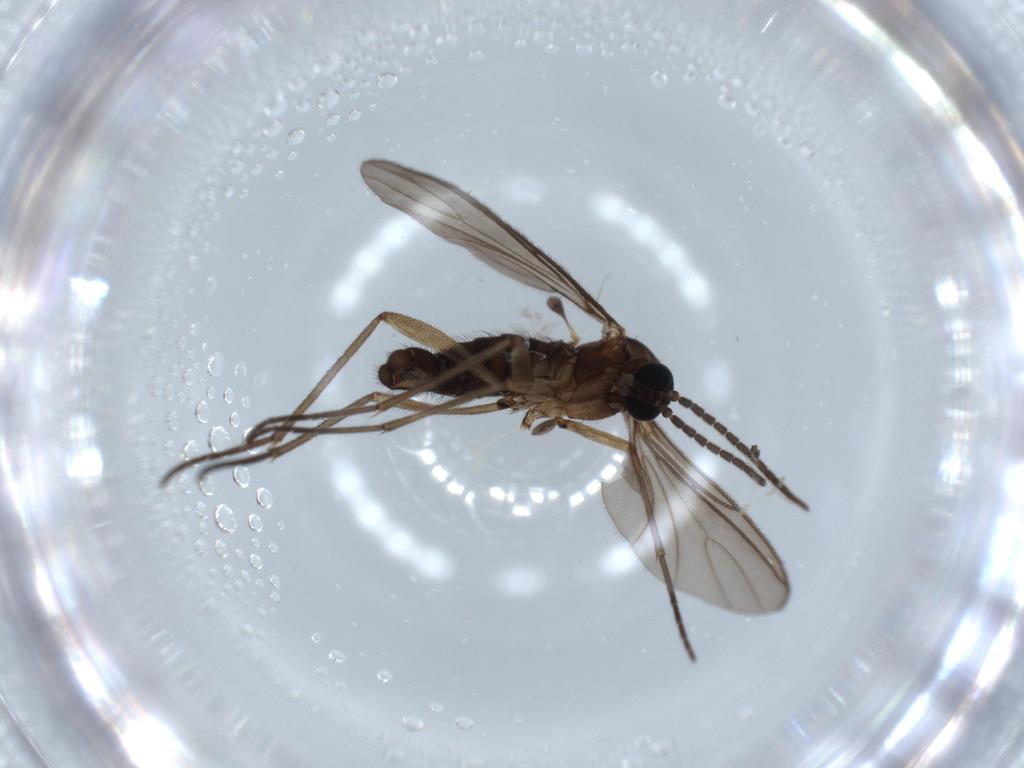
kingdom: Animalia
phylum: Arthropoda
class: Insecta
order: Diptera
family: Sciaridae
